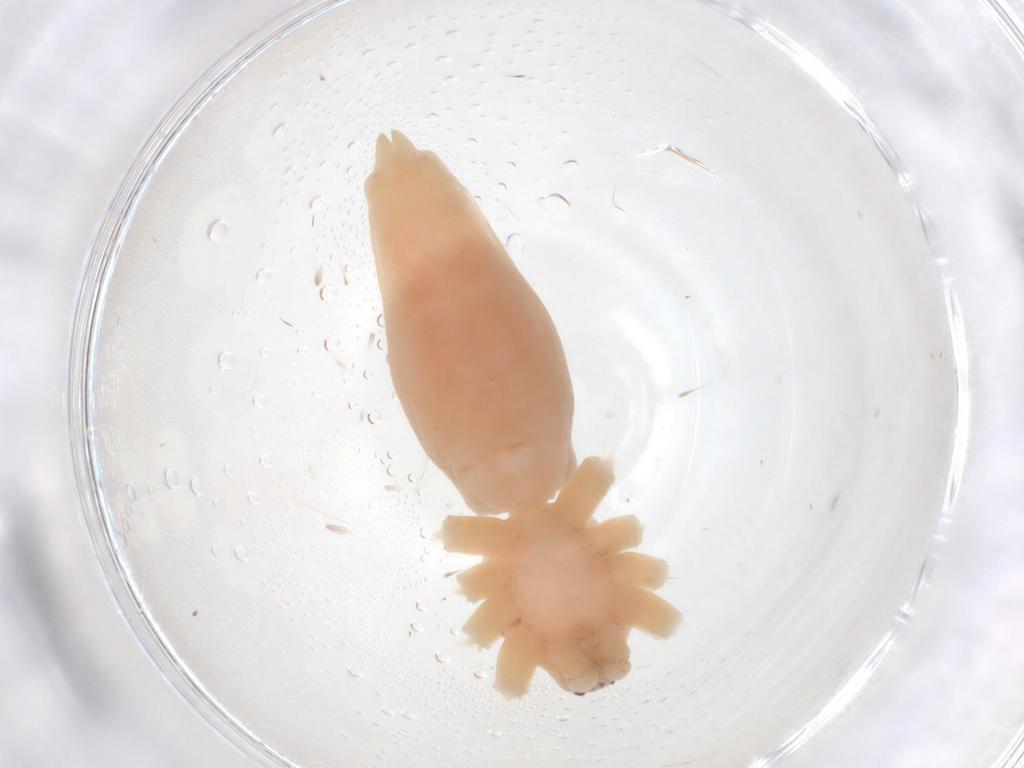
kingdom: Animalia
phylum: Arthropoda
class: Arachnida
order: Araneae
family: Anyphaenidae
